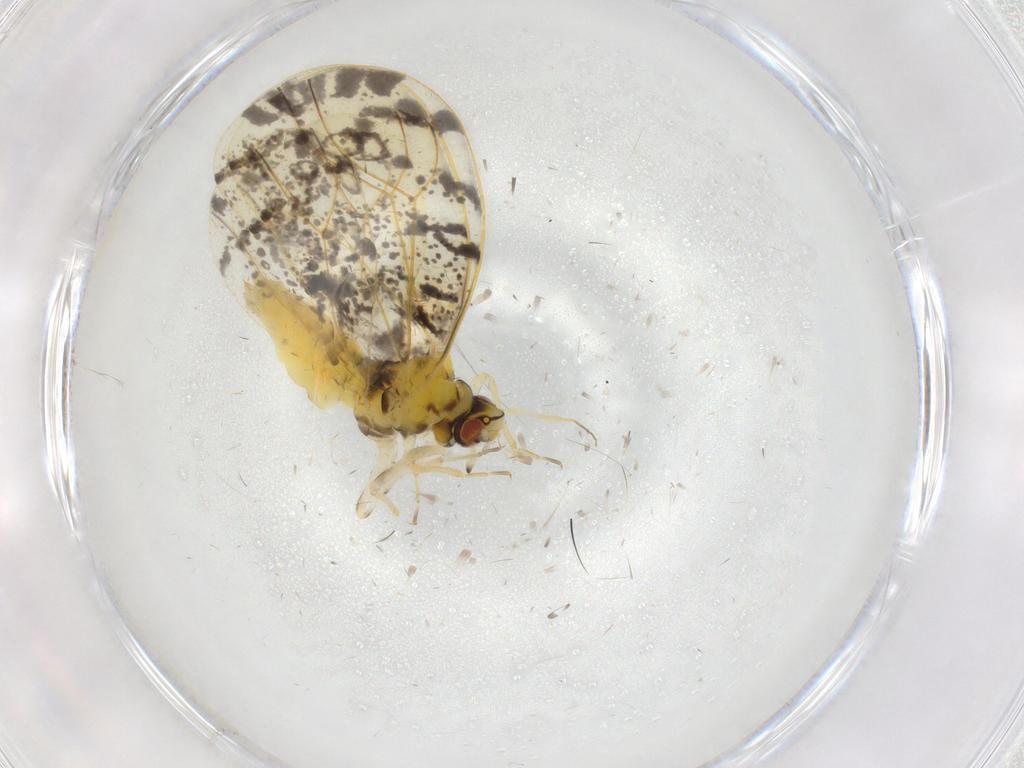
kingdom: Animalia
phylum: Arthropoda
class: Insecta
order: Hemiptera
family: Aleyrodidae
